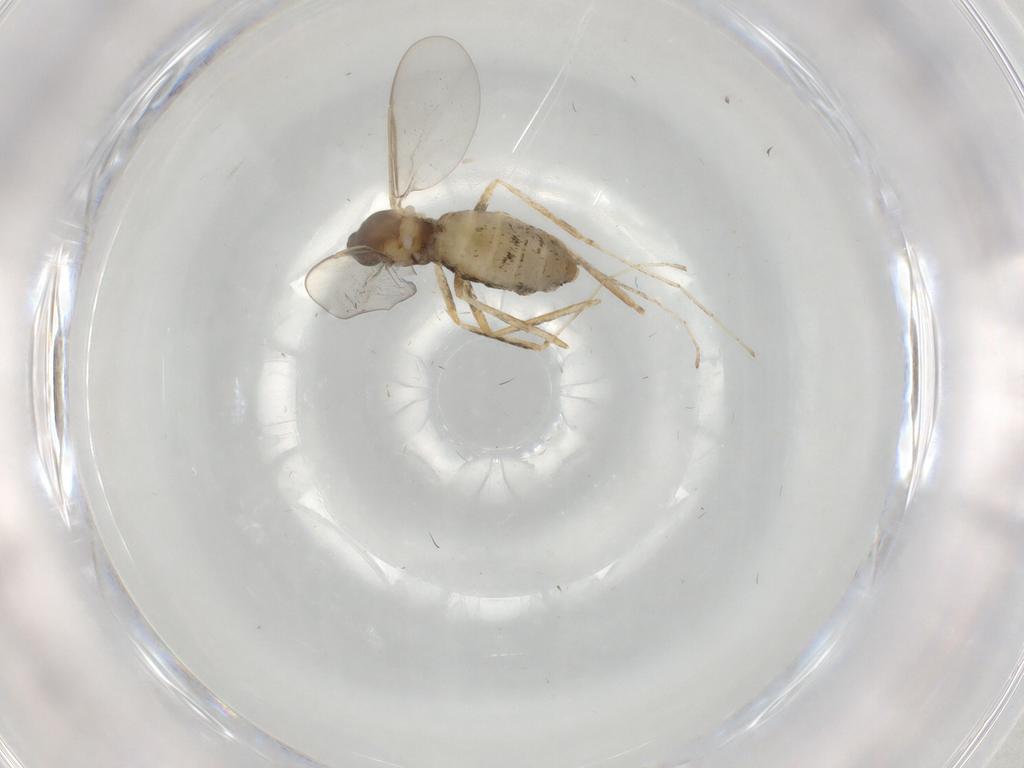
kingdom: Animalia
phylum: Arthropoda
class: Insecta
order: Diptera
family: Cecidomyiidae
